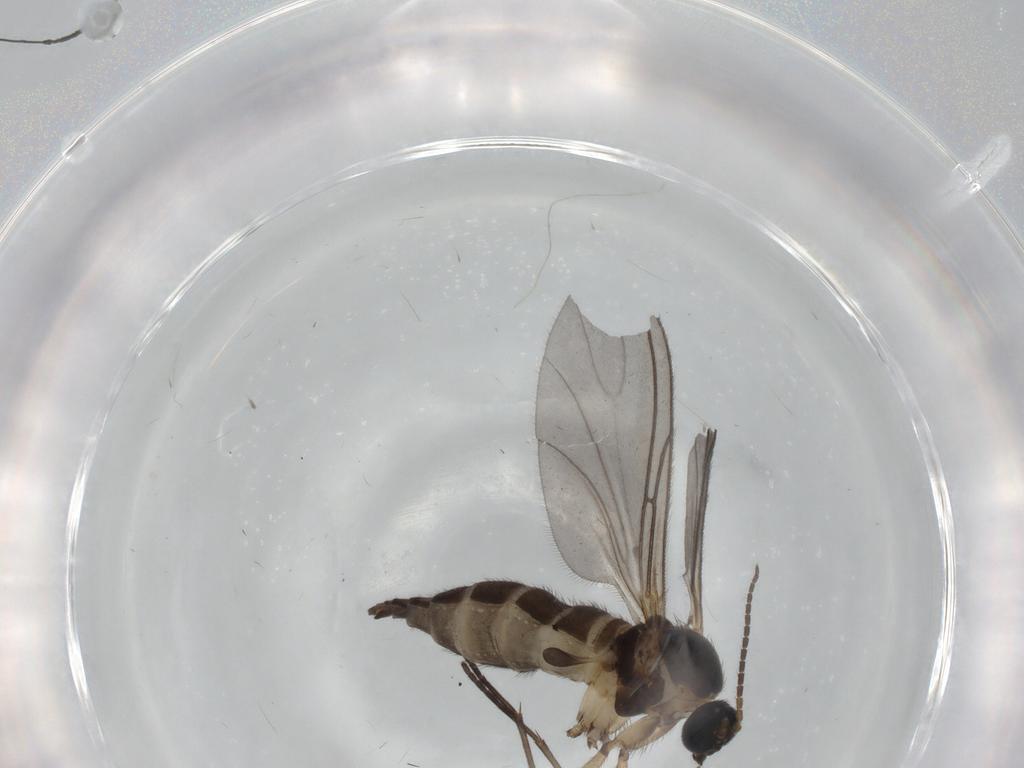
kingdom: Animalia
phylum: Arthropoda
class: Insecta
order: Diptera
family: Sciaridae
